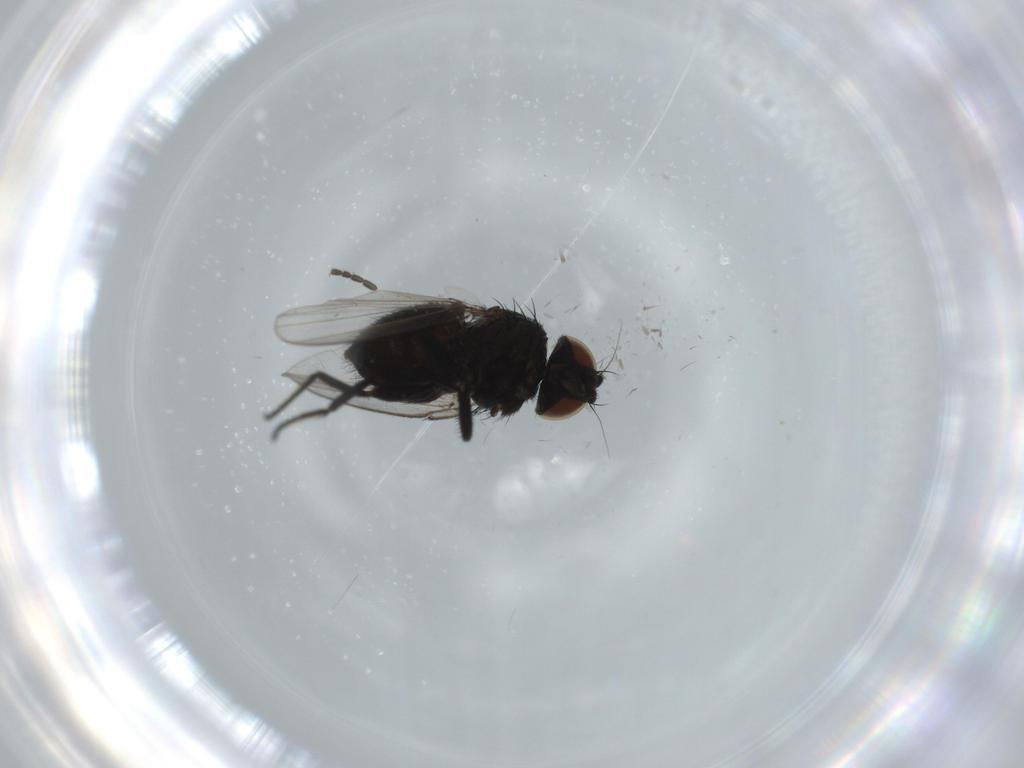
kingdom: Animalia
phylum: Arthropoda
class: Insecta
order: Diptera
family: Milichiidae
